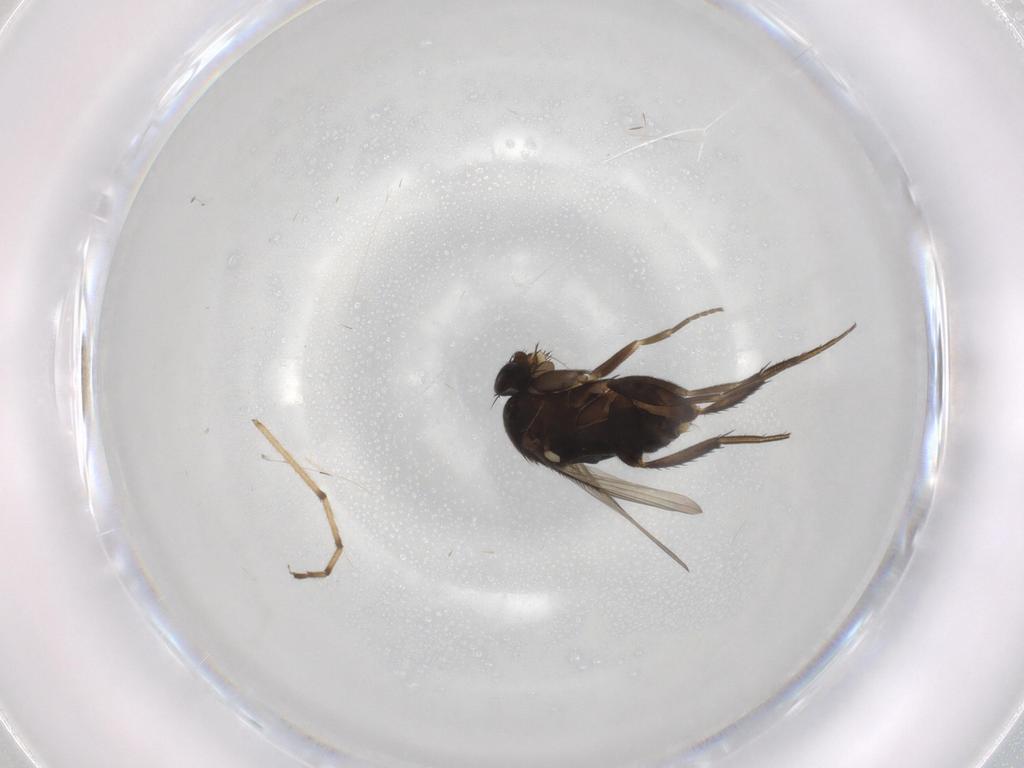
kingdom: Animalia
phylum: Arthropoda
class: Insecta
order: Diptera
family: Phoridae
